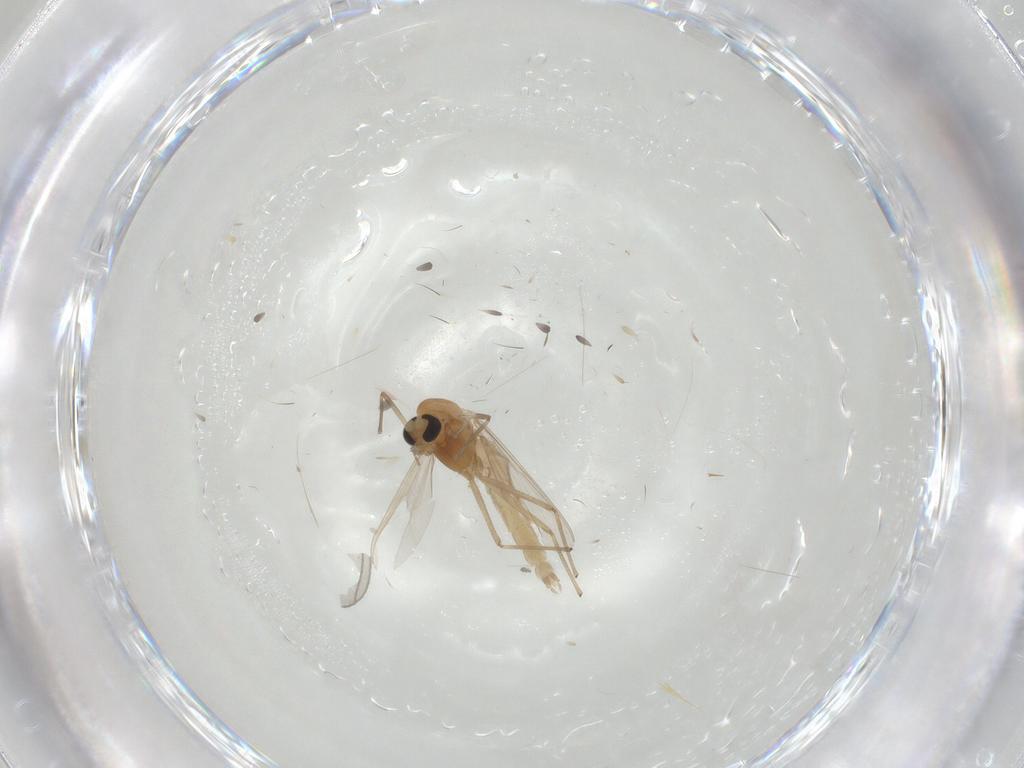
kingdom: Animalia
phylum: Arthropoda
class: Insecta
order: Diptera
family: Chironomidae
